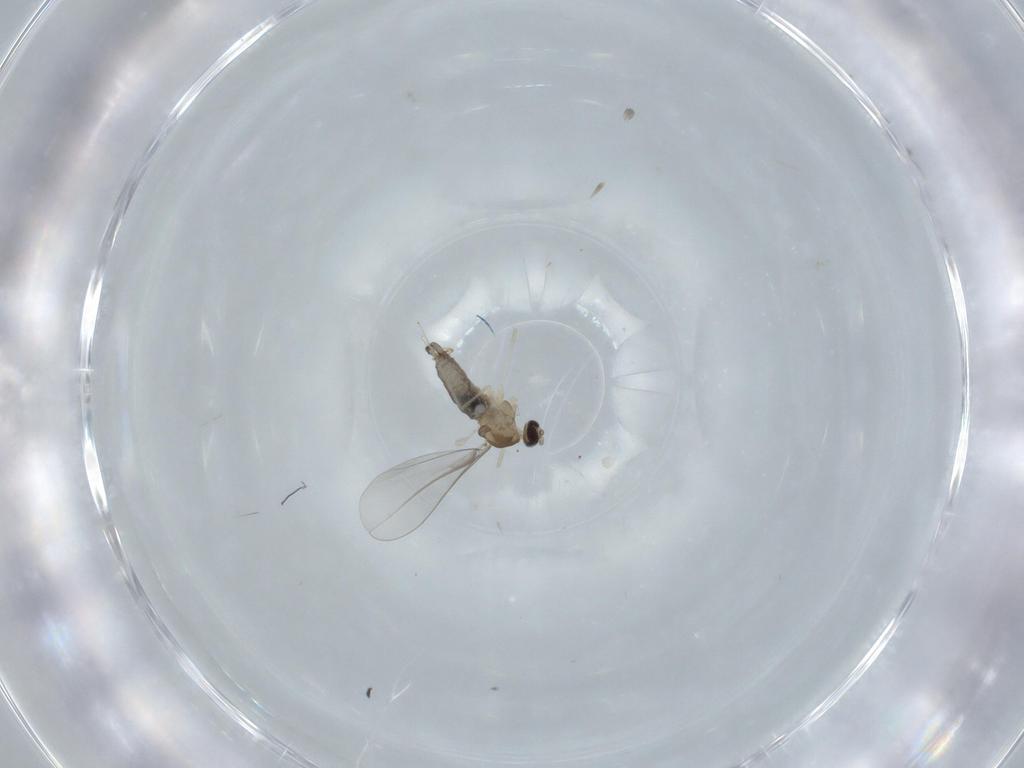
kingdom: Animalia
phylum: Arthropoda
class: Insecta
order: Diptera
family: Cecidomyiidae
